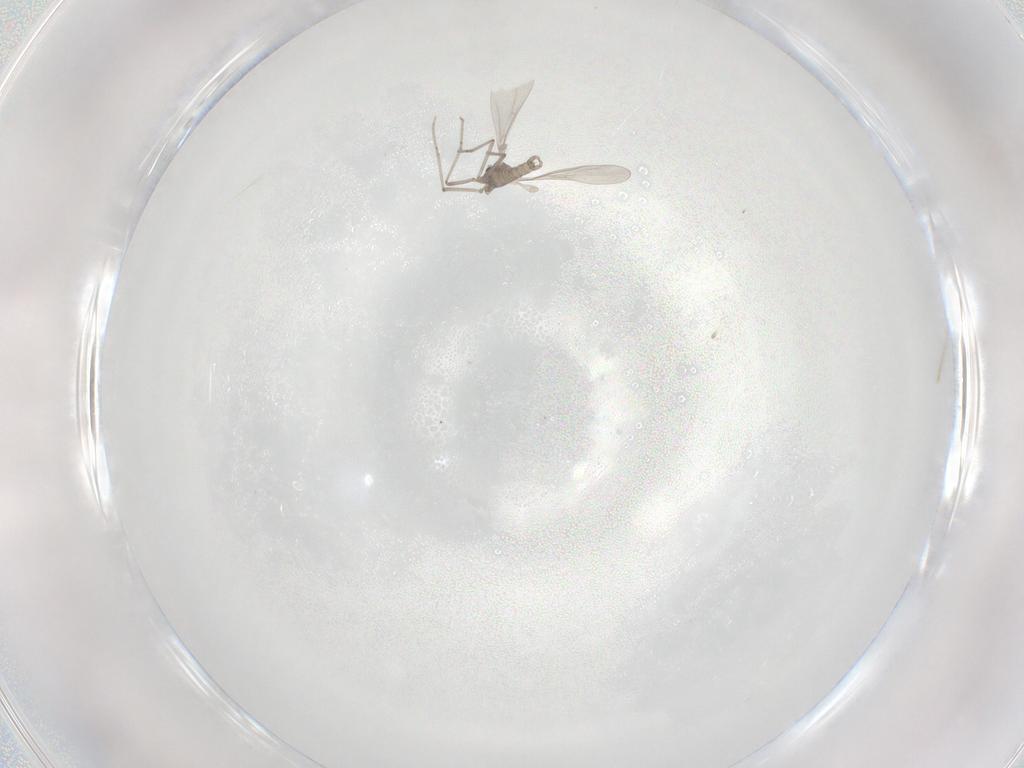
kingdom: Animalia
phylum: Arthropoda
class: Insecta
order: Diptera
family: Cecidomyiidae
